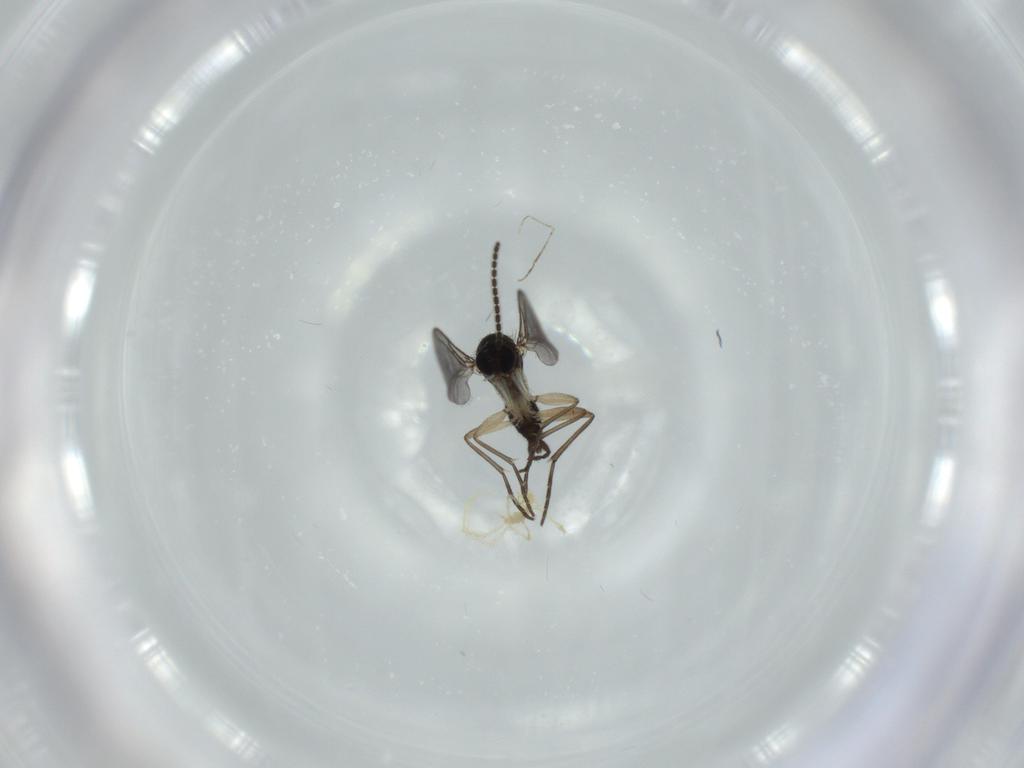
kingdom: Animalia
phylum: Arthropoda
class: Insecta
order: Diptera
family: Sciaridae
